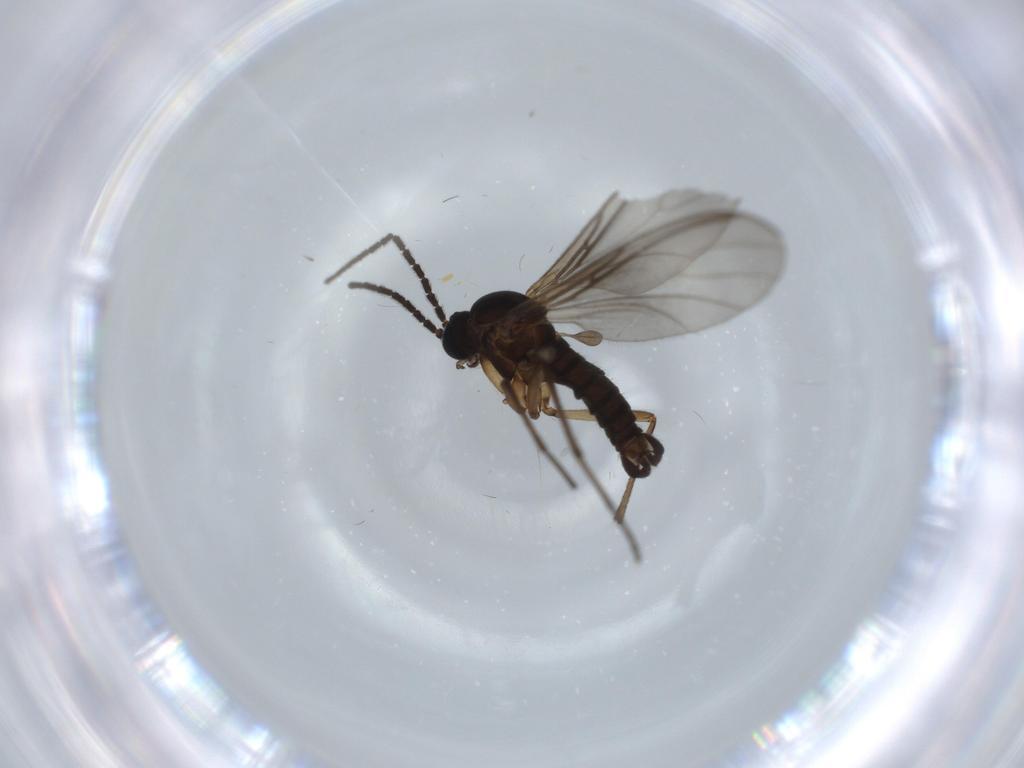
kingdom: Animalia
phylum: Arthropoda
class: Insecta
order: Diptera
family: Sciaridae
